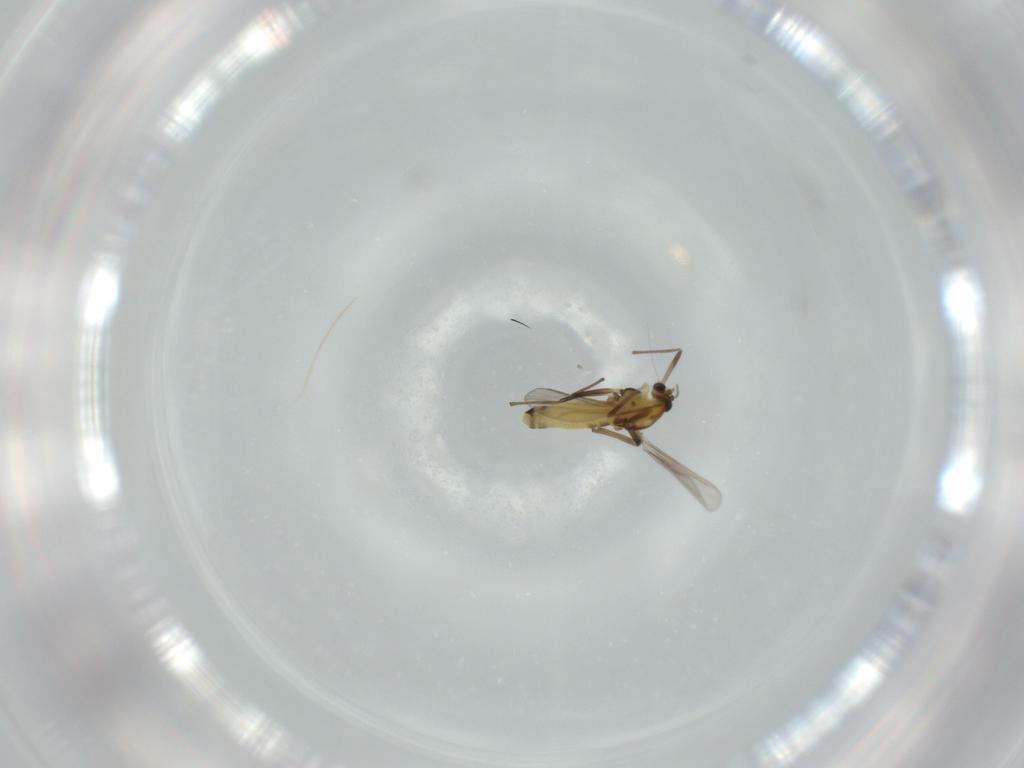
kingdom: Animalia
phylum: Arthropoda
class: Insecta
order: Diptera
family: Chironomidae
